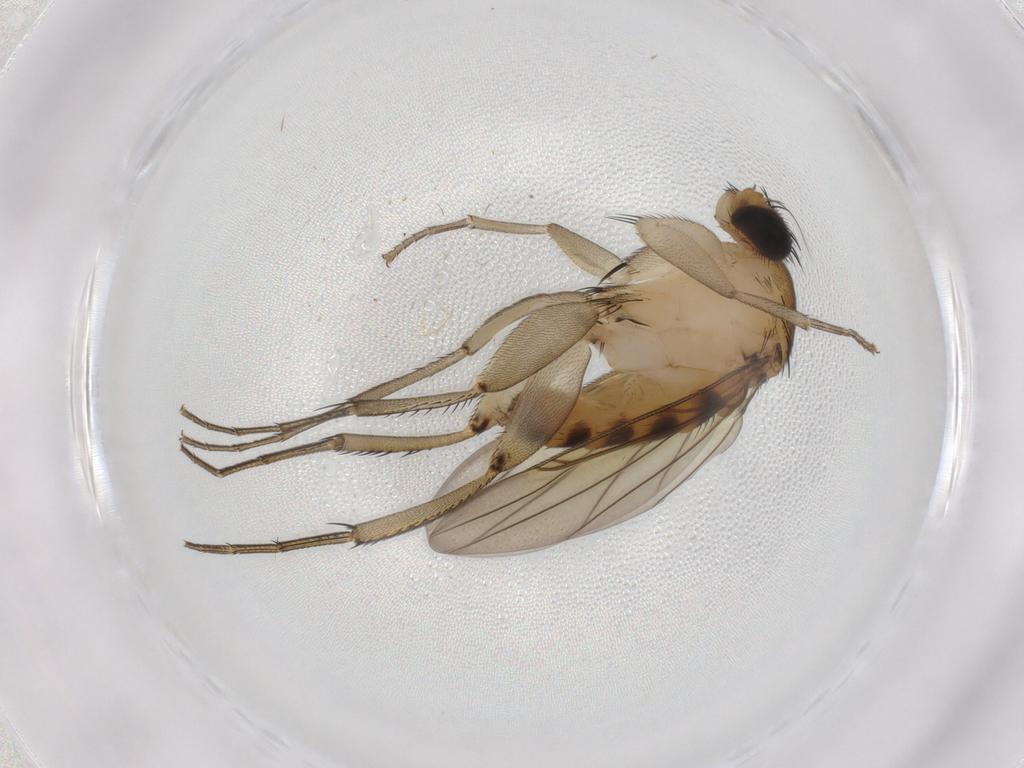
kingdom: Animalia
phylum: Arthropoda
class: Insecta
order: Diptera
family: Phoridae
